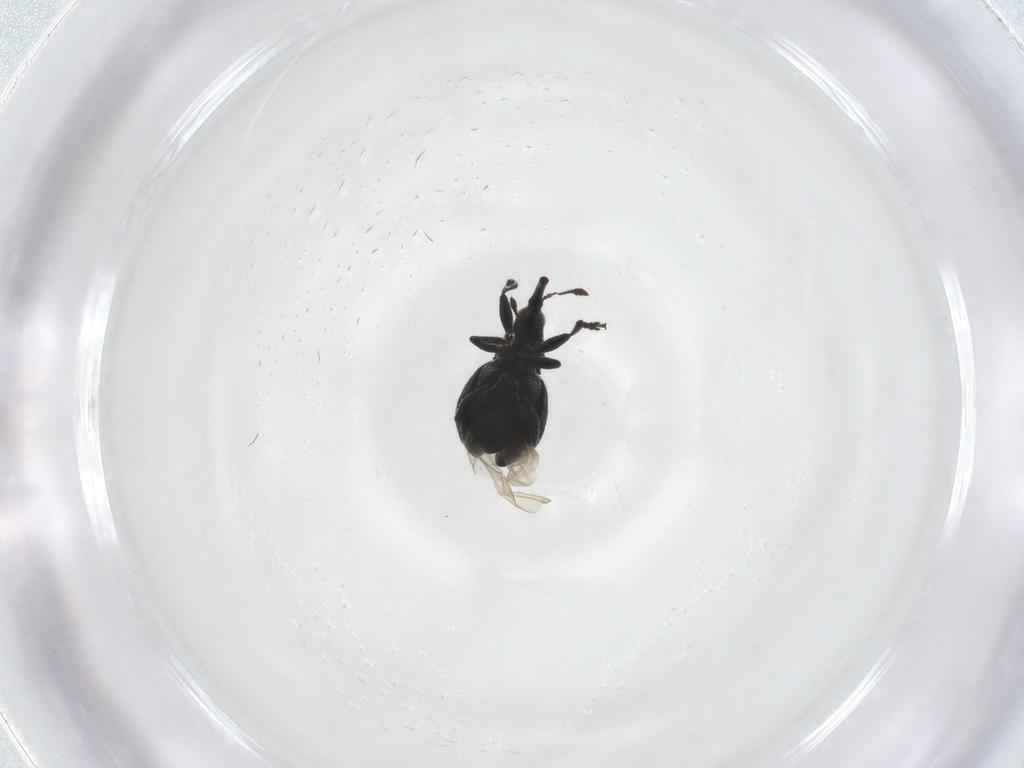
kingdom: Animalia
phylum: Arthropoda
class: Insecta
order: Coleoptera
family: Brentidae
